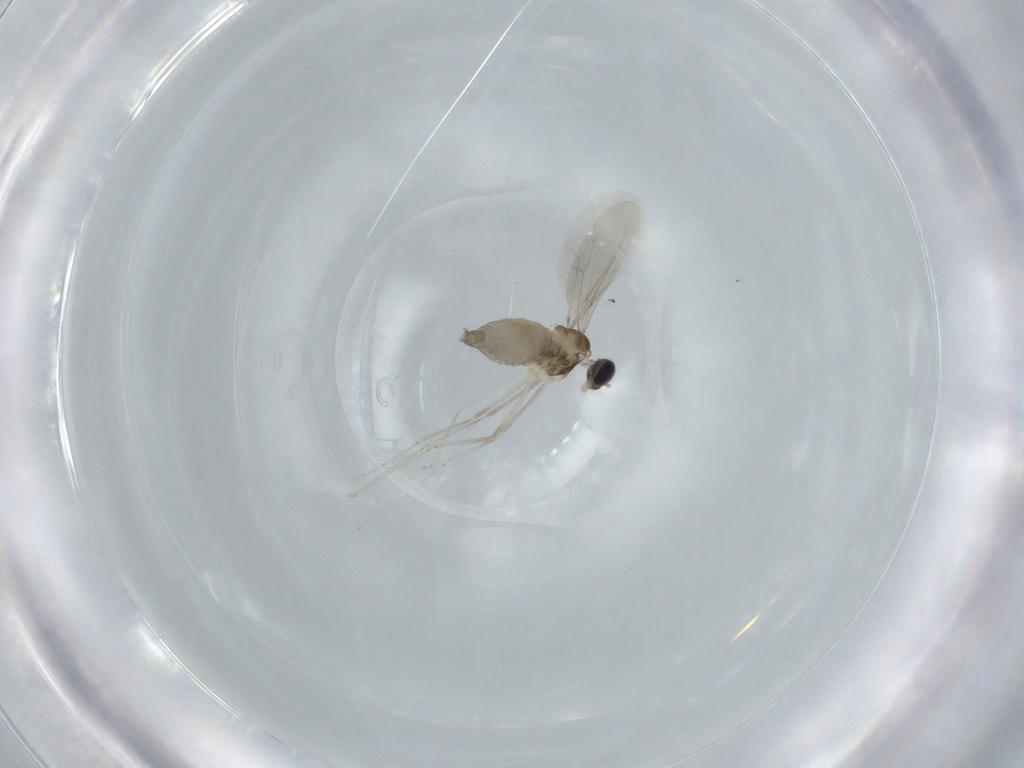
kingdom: Animalia
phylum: Arthropoda
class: Insecta
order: Diptera
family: Cecidomyiidae
